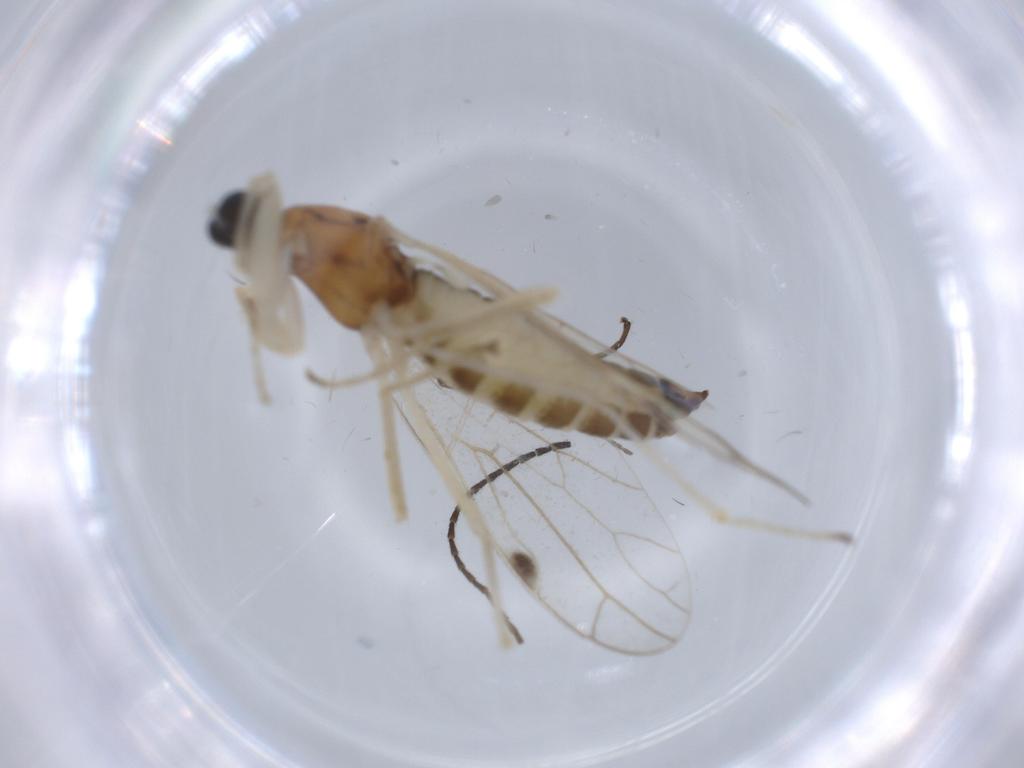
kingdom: Animalia
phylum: Arthropoda
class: Insecta
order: Diptera
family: Empididae
